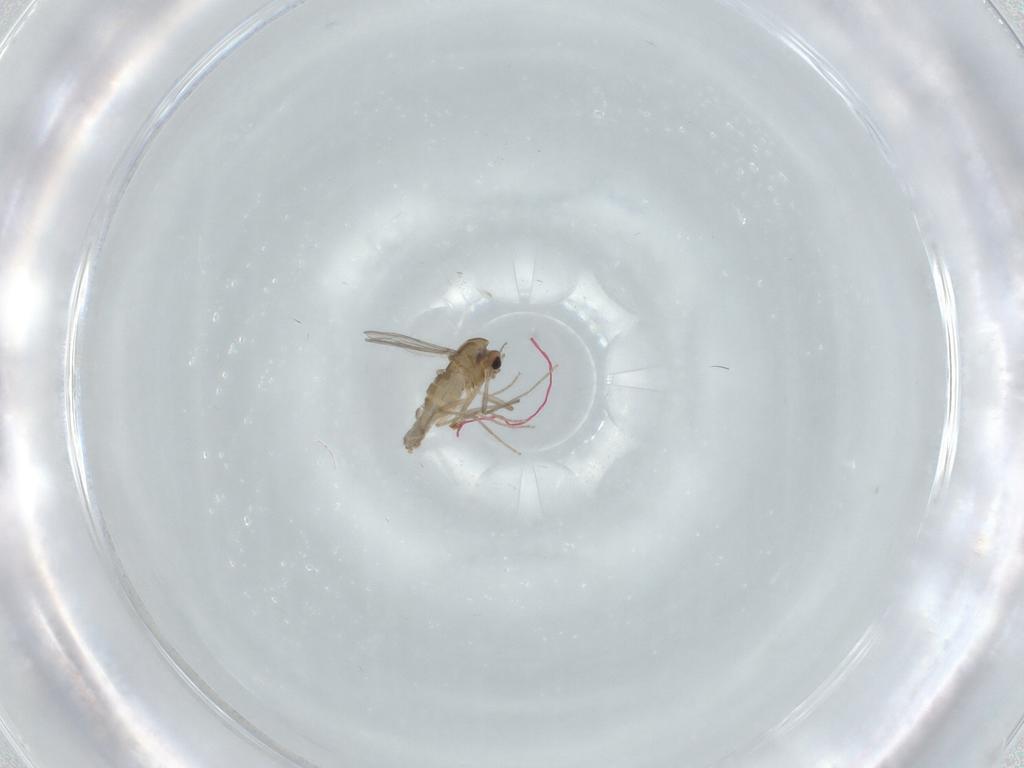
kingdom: Animalia
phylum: Arthropoda
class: Insecta
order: Diptera
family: Chironomidae
